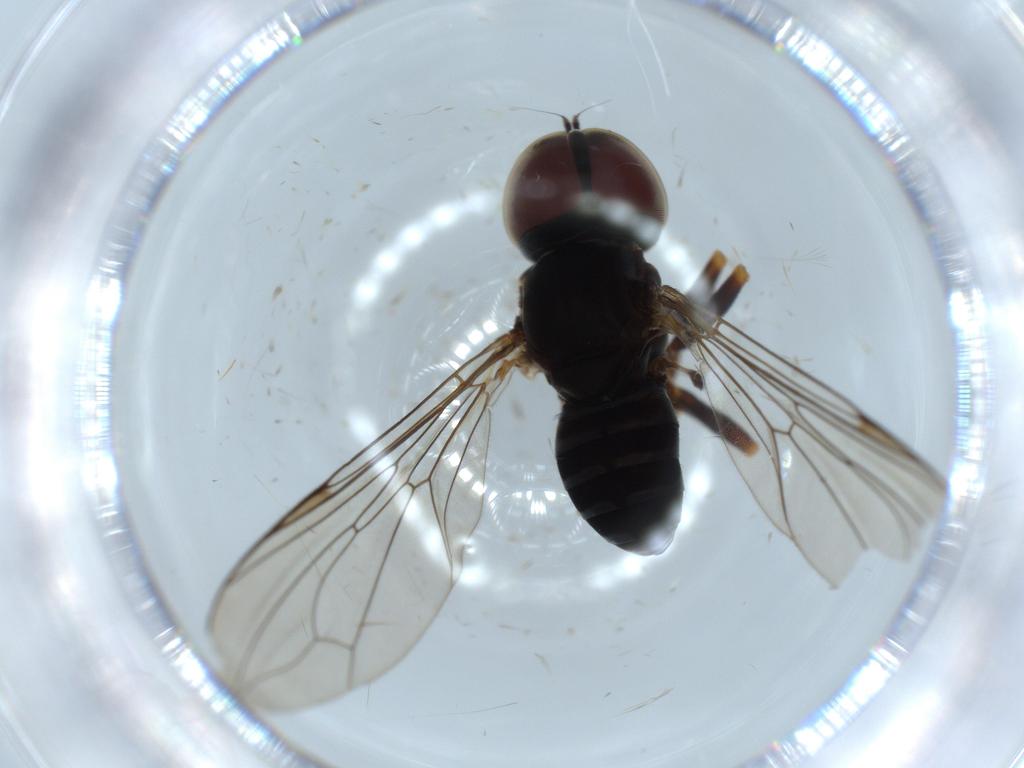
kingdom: Animalia
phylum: Arthropoda
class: Insecta
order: Diptera
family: Pipunculidae
